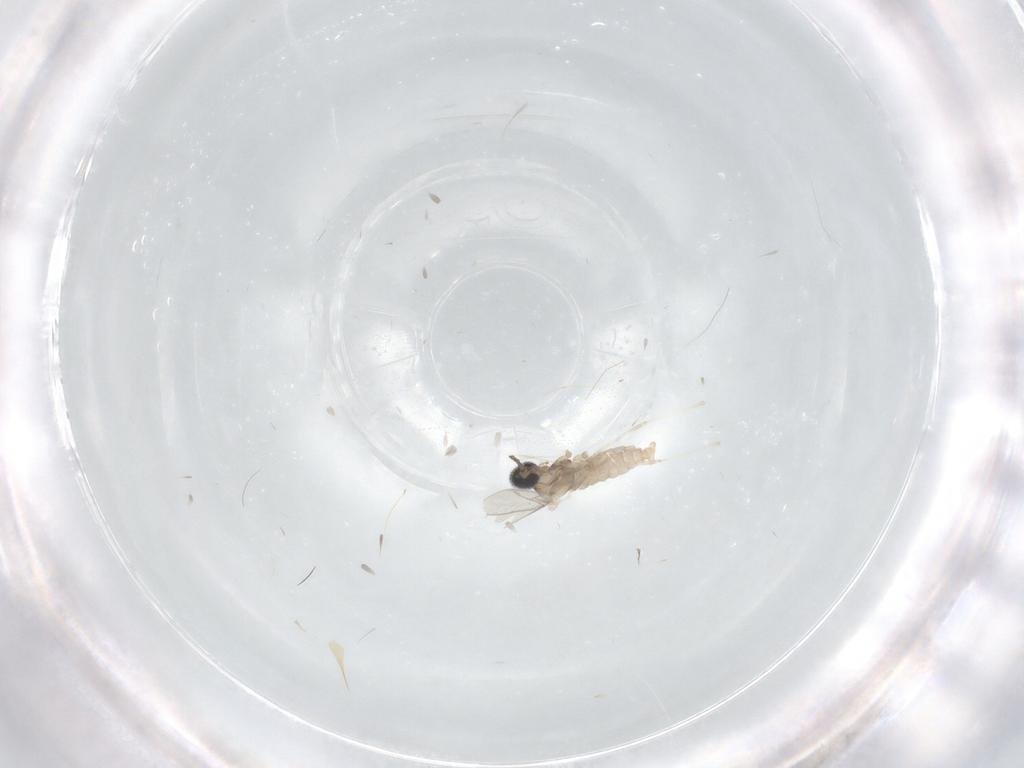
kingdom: Animalia
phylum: Arthropoda
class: Insecta
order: Diptera
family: Cecidomyiidae
